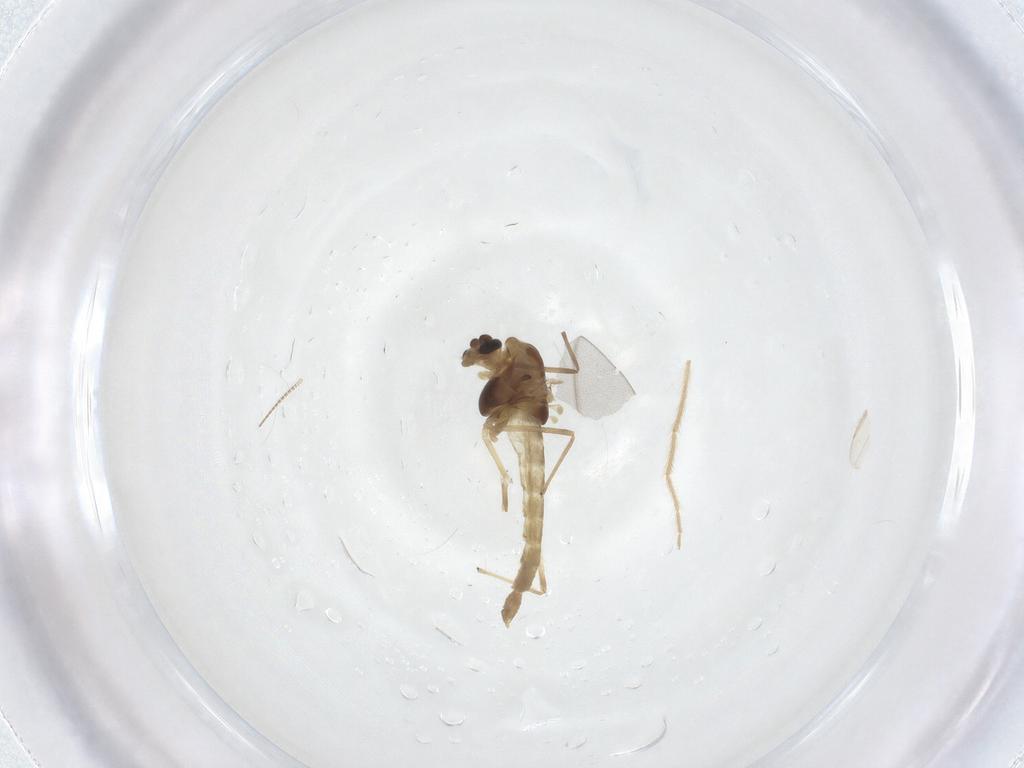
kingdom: Animalia
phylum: Arthropoda
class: Insecta
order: Diptera
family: Chironomidae
